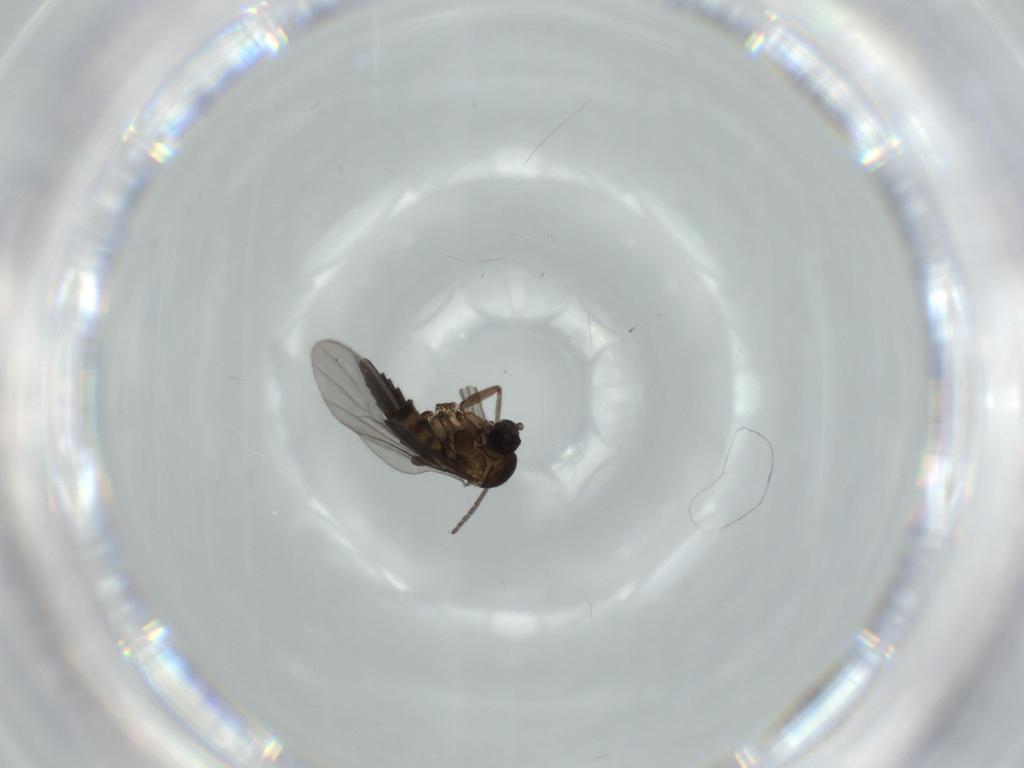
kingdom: Animalia
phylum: Arthropoda
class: Insecta
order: Diptera
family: Sciaridae
